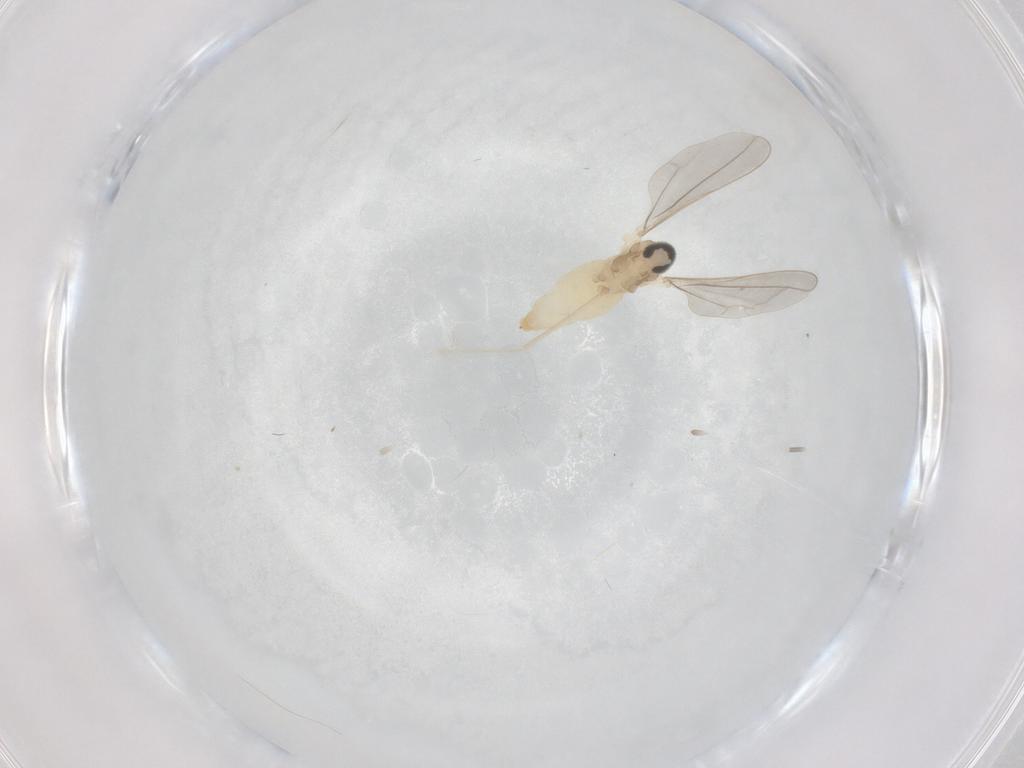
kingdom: Animalia
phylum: Arthropoda
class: Insecta
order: Diptera
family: Cecidomyiidae
